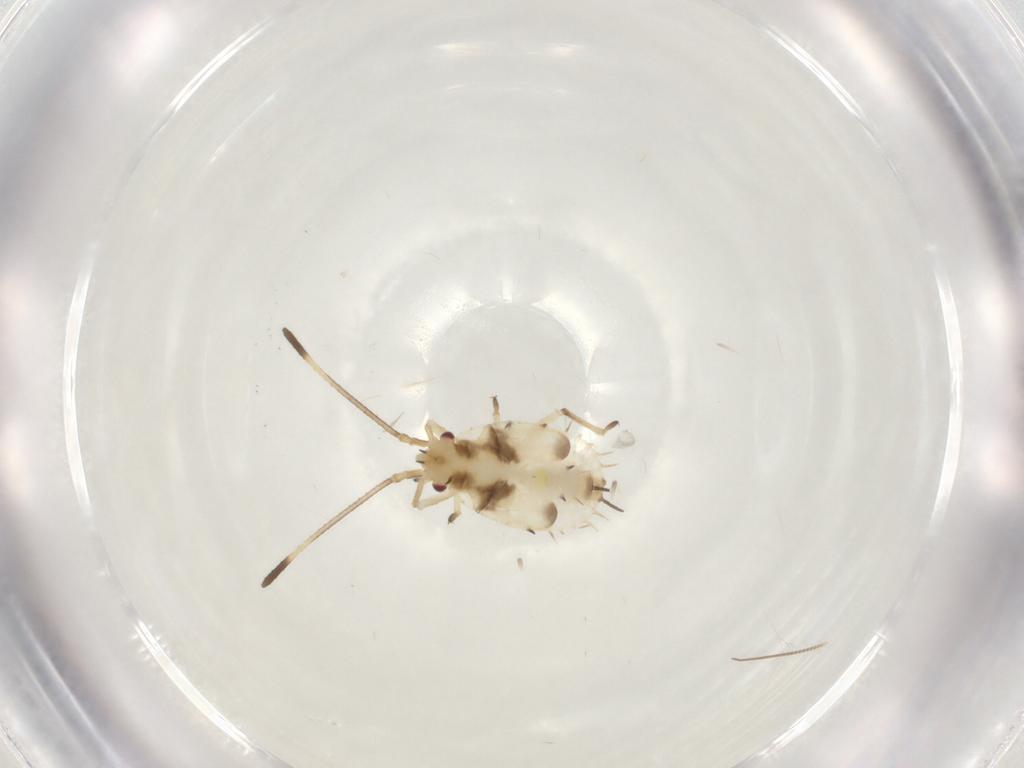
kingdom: Animalia
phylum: Arthropoda
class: Insecta
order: Hemiptera
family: Tingidae
